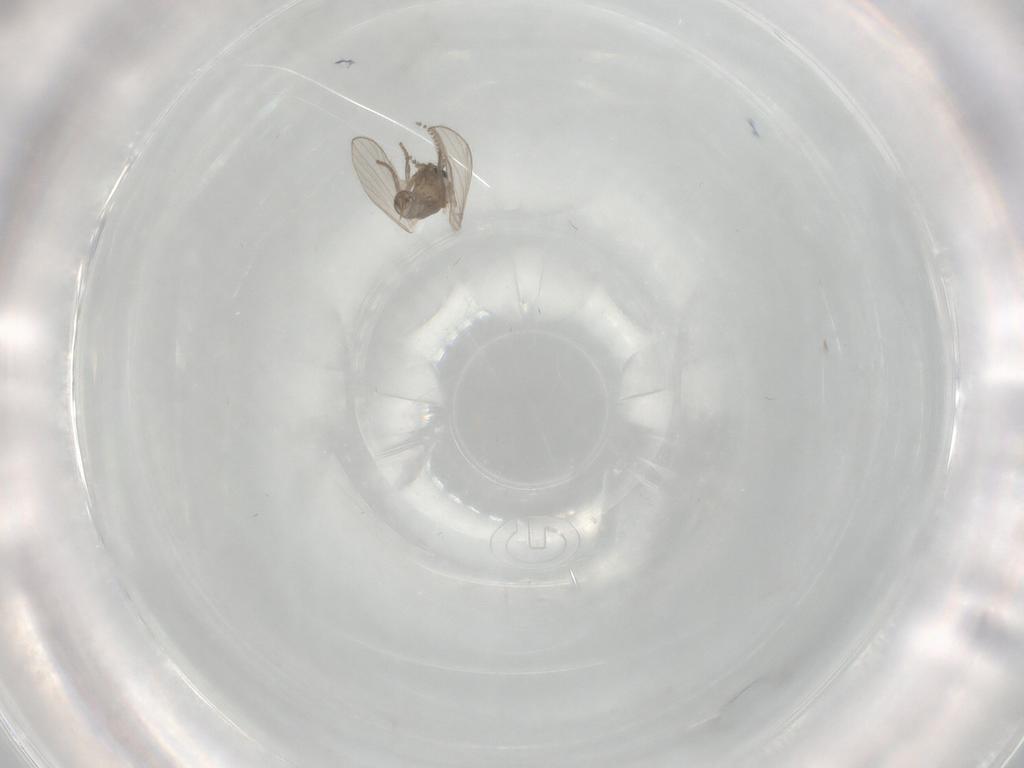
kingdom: Animalia
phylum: Arthropoda
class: Insecta
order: Diptera
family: Psychodidae
